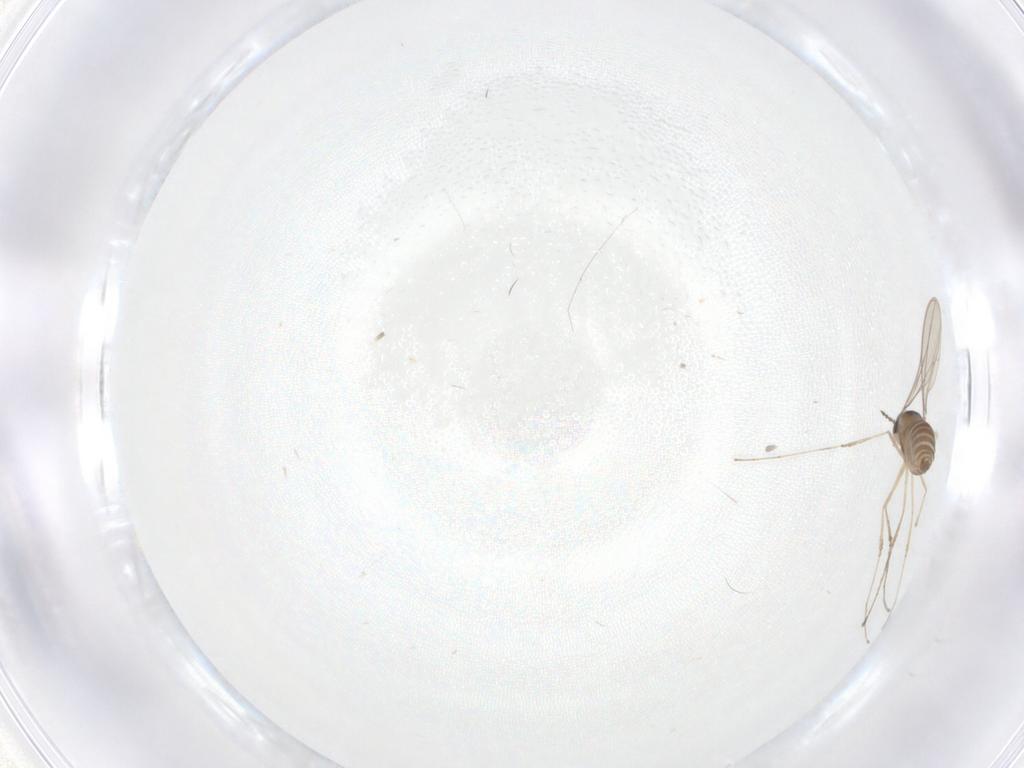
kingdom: Animalia
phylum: Arthropoda
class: Insecta
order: Diptera
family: Cecidomyiidae
